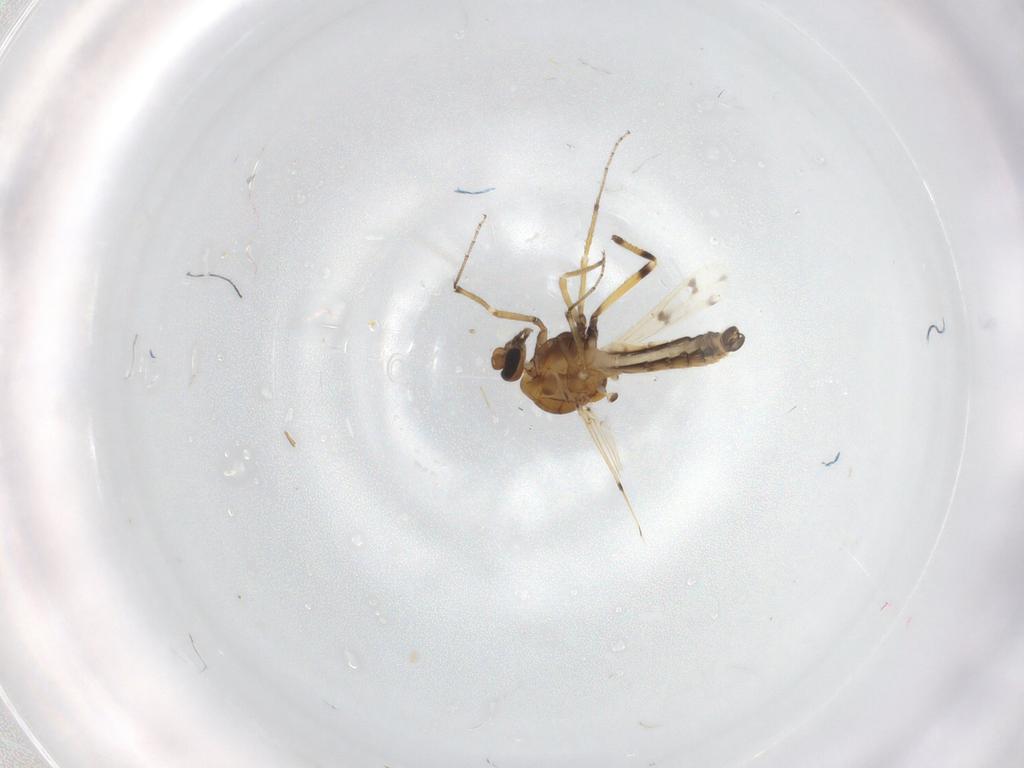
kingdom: Animalia
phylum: Arthropoda
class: Insecta
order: Diptera
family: Ceratopogonidae
